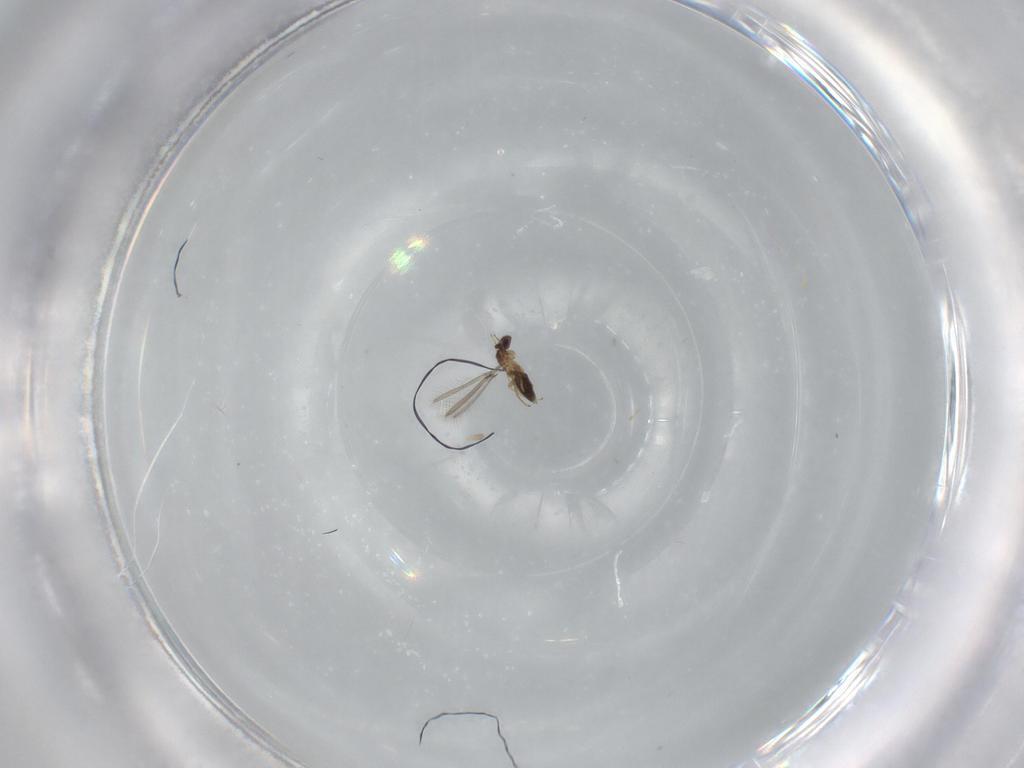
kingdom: Animalia
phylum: Arthropoda
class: Insecta
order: Hymenoptera
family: Mymaridae
